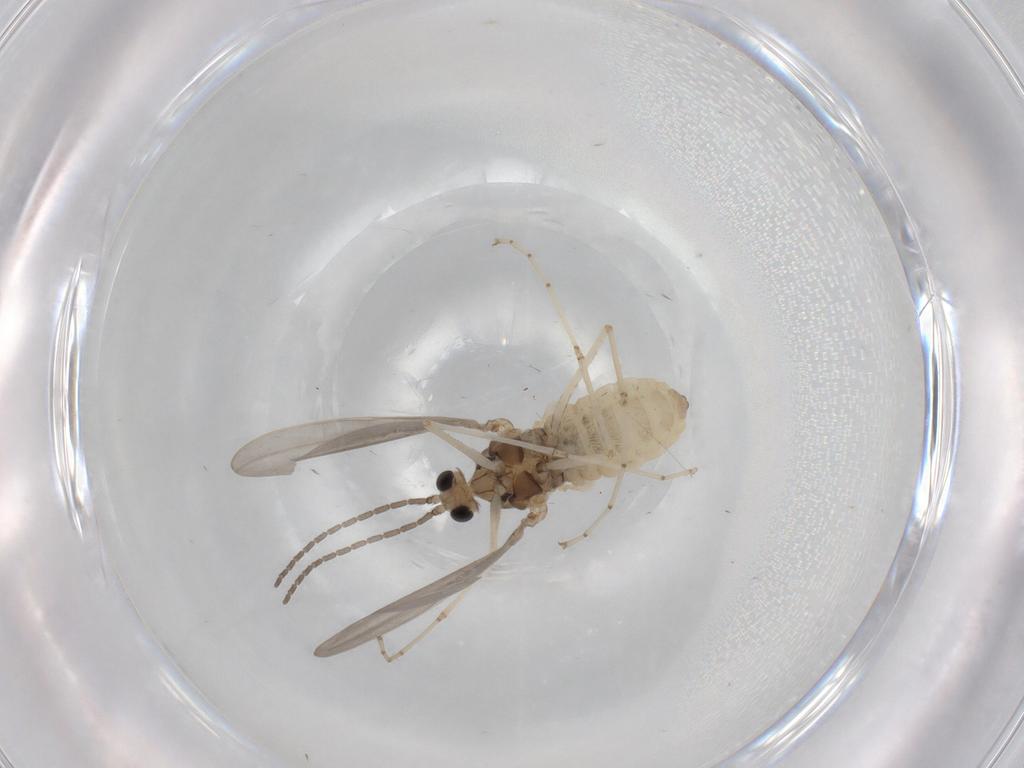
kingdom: Animalia
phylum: Arthropoda
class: Insecta
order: Diptera
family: Cecidomyiidae
